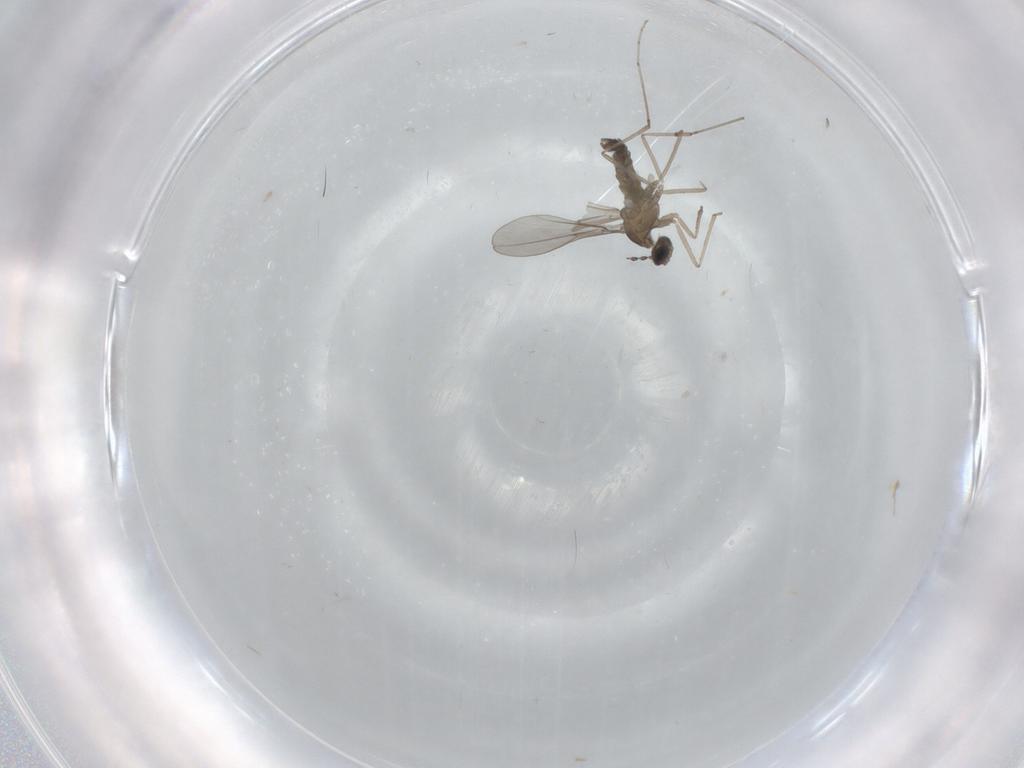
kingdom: Animalia
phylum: Arthropoda
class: Insecta
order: Diptera
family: Cecidomyiidae
